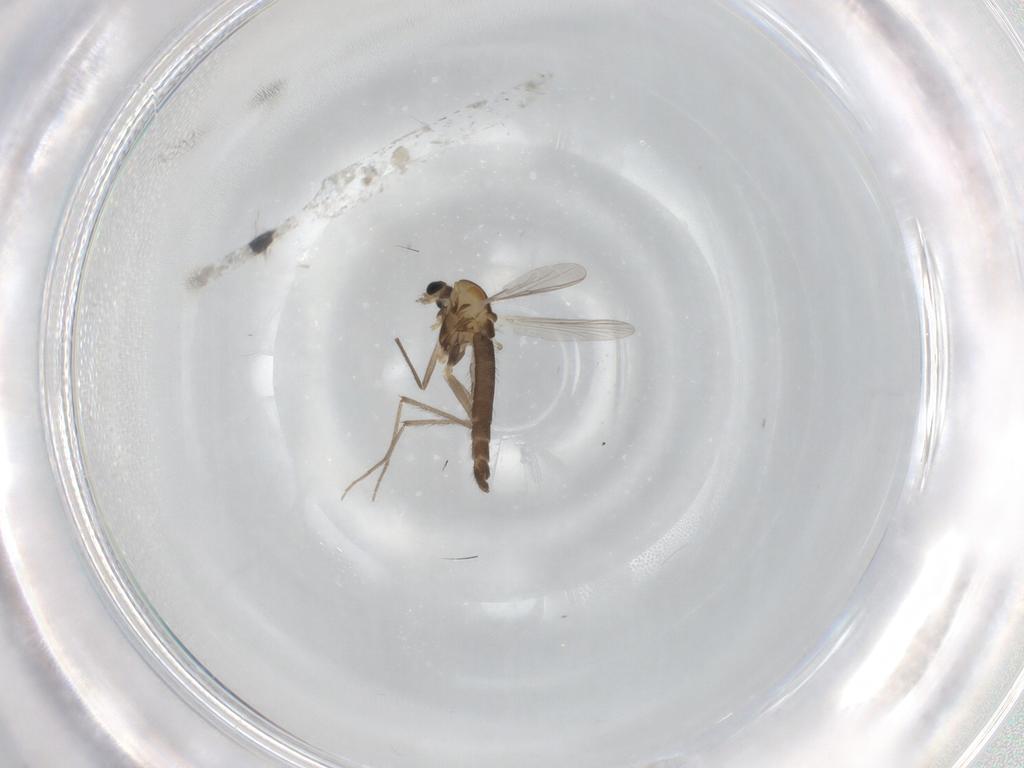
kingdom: Animalia
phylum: Arthropoda
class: Insecta
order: Diptera
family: Chironomidae
